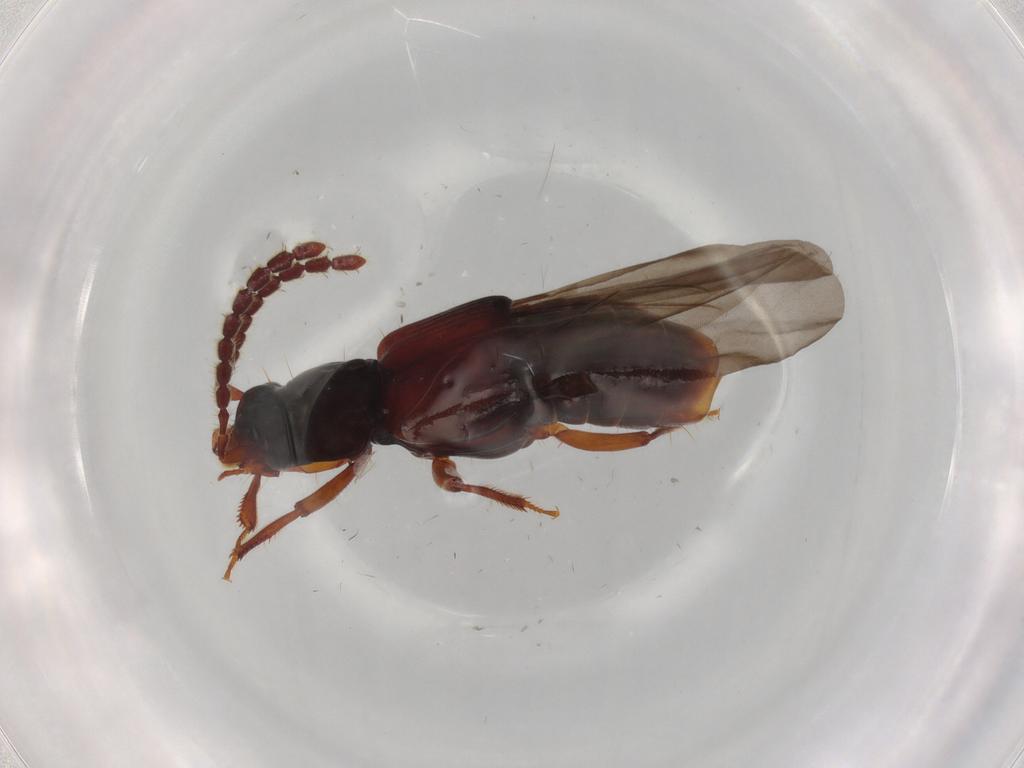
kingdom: Animalia
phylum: Arthropoda
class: Insecta
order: Coleoptera
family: Staphylinidae
